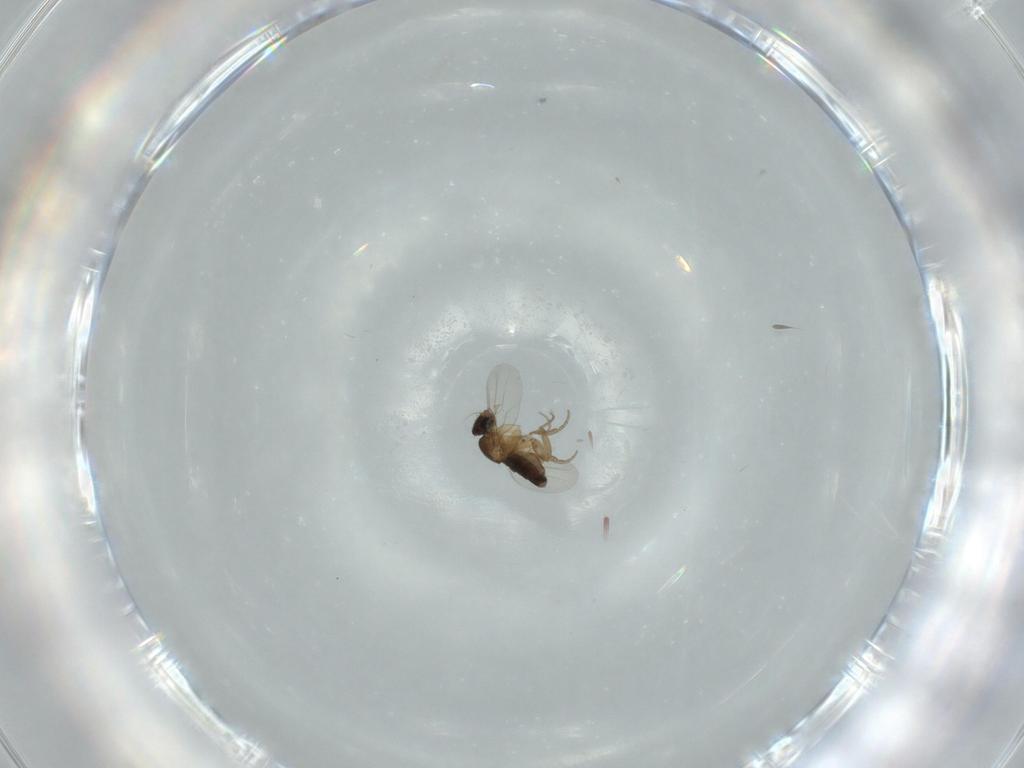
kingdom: Animalia
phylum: Arthropoda
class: Insecta
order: Diptera
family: Phoridae
